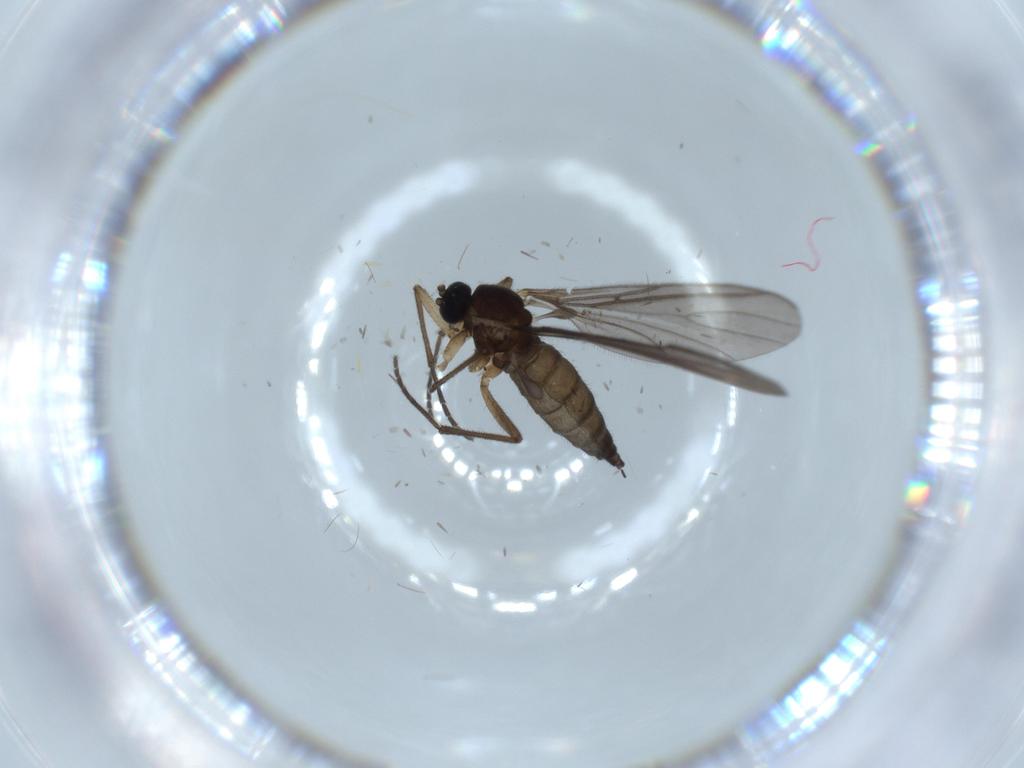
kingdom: Animalia
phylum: Arthropoda
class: Insecta
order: Diptera
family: Sciaridae
